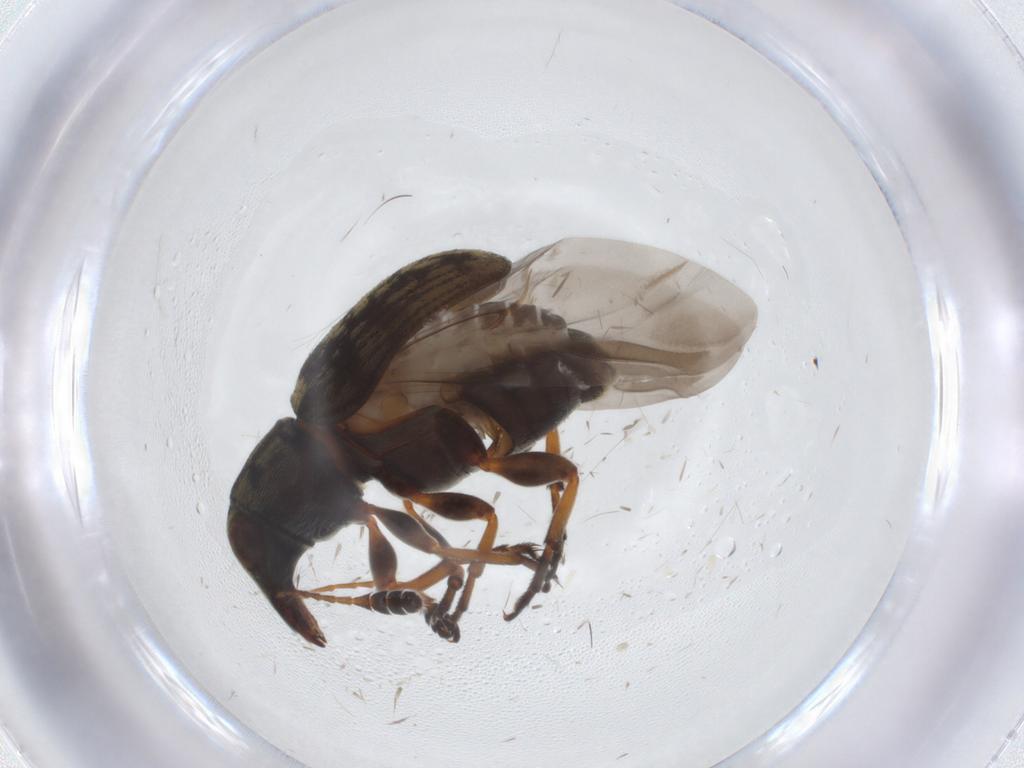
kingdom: Animalia
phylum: Arthropoda
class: Insecta
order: Coleoptera
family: Anthribidae
